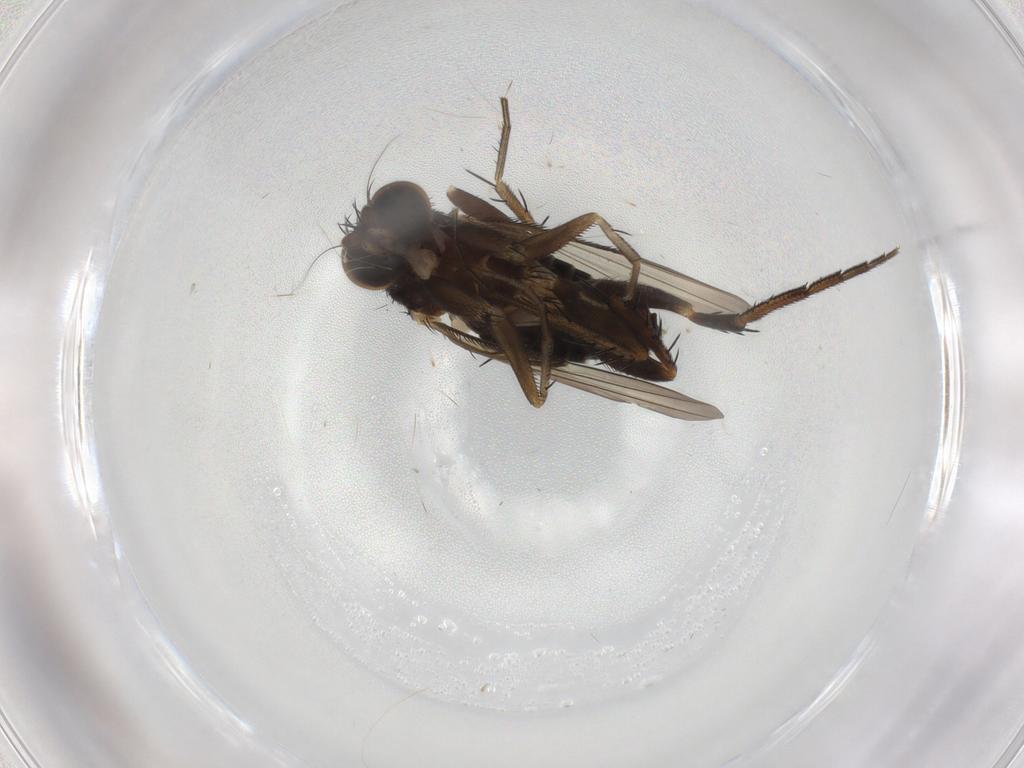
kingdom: Animalia
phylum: Arthropoda
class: Insecta
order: Diptera
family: Phoridae
